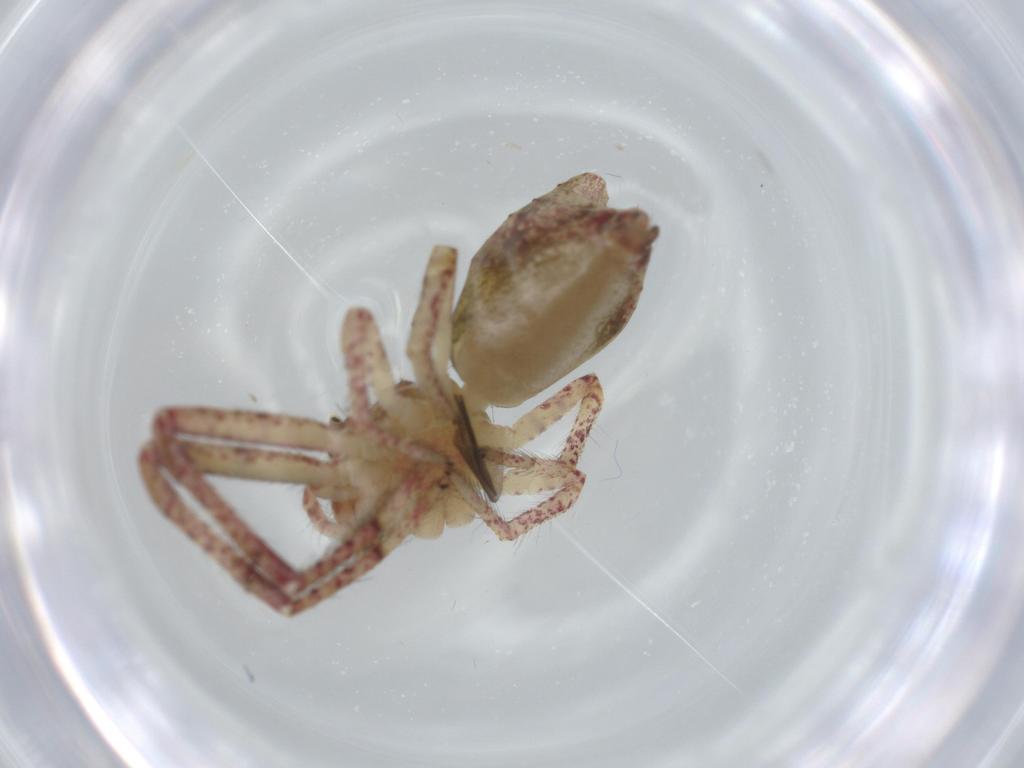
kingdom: Animalia
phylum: Arthropoda
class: Arachnida
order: Araneae
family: Thomisidae
